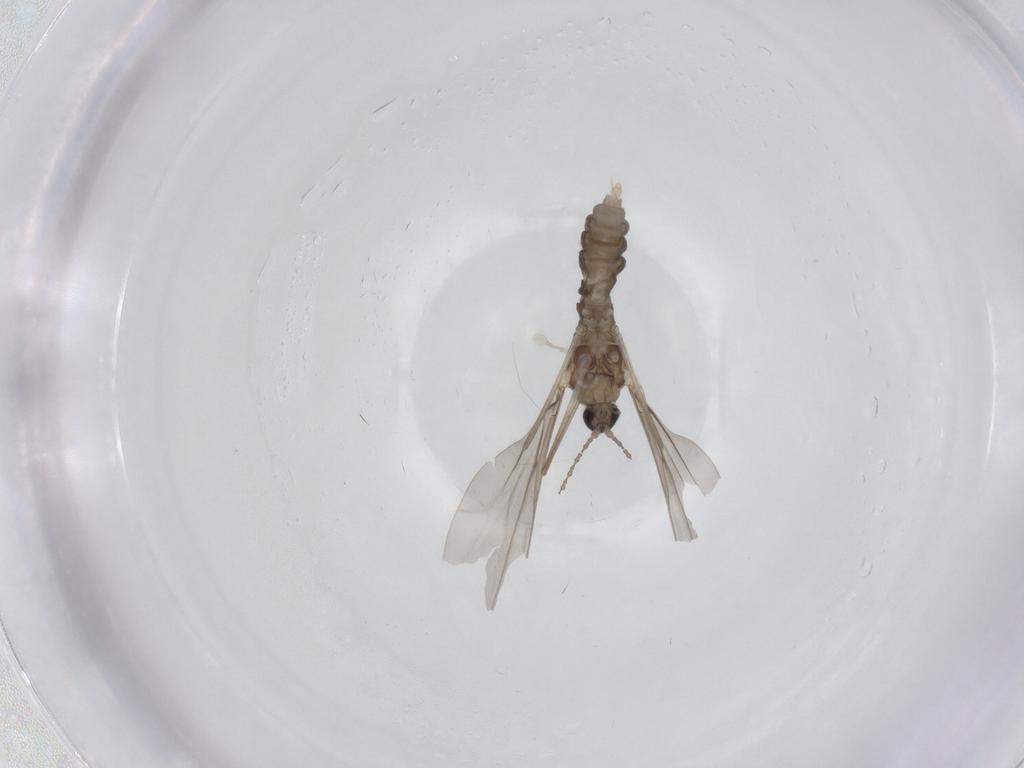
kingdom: Animalia
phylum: Arthropoda
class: Insecta
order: Diptera
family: Cecidomyiidae
